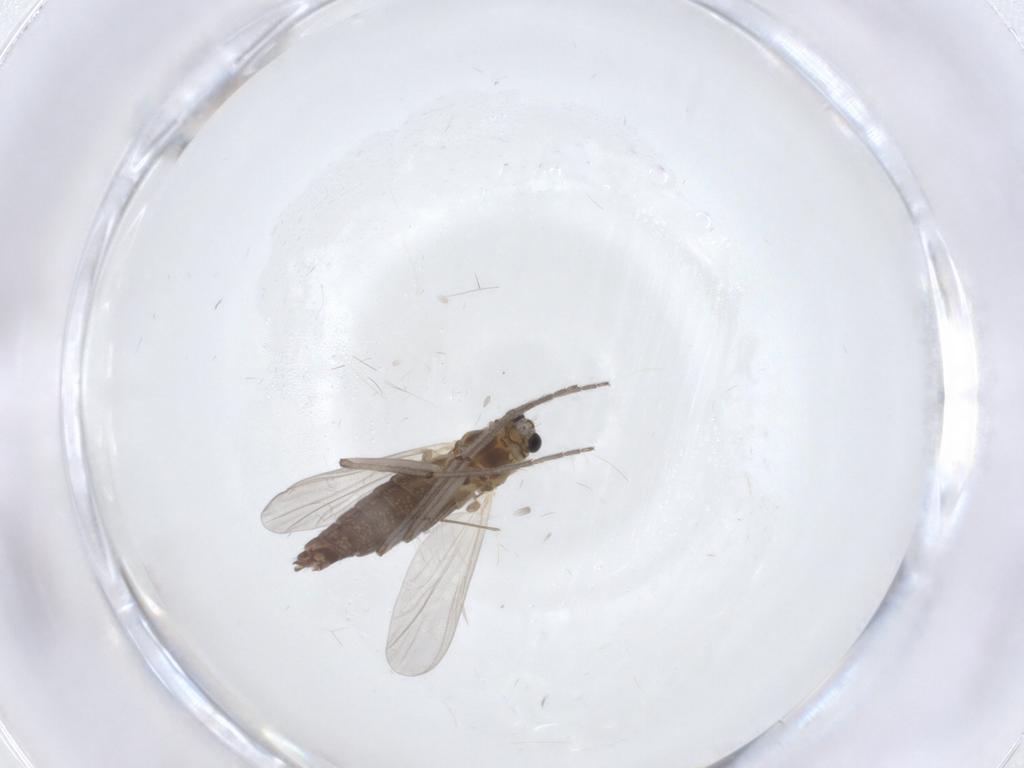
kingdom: Animalia
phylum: Arthropoda
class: Insecta
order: Diptera
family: Chironomidae
